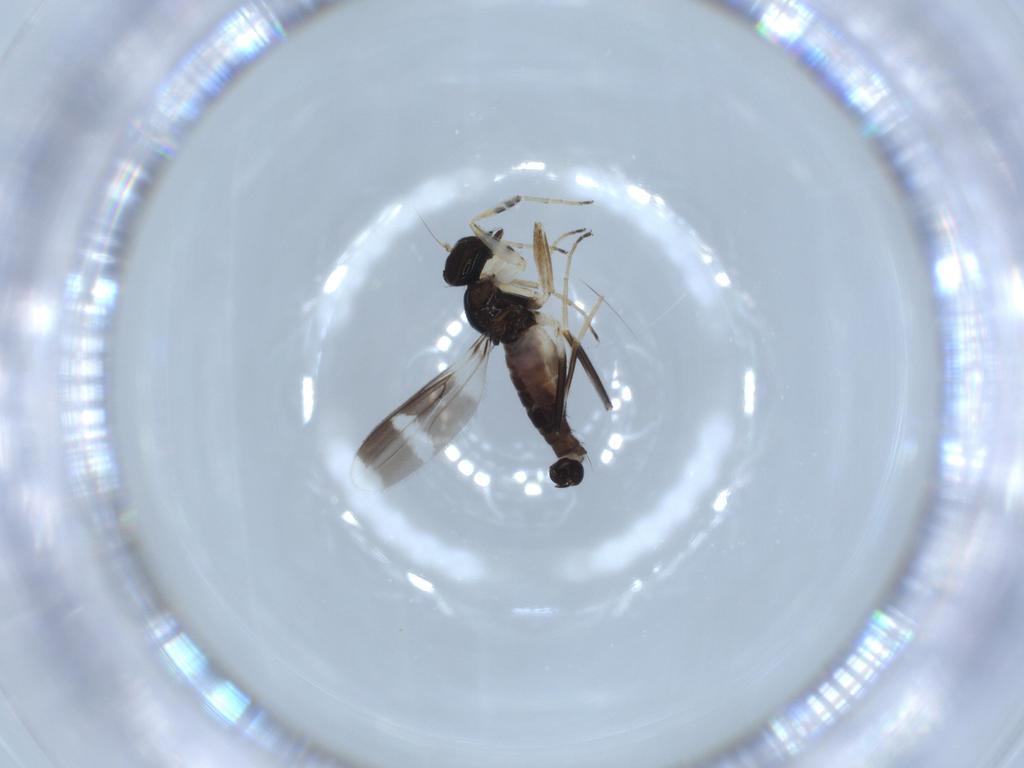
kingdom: Animalia
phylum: Arthropoda
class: Insecta
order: Diptera
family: Hybotidae
